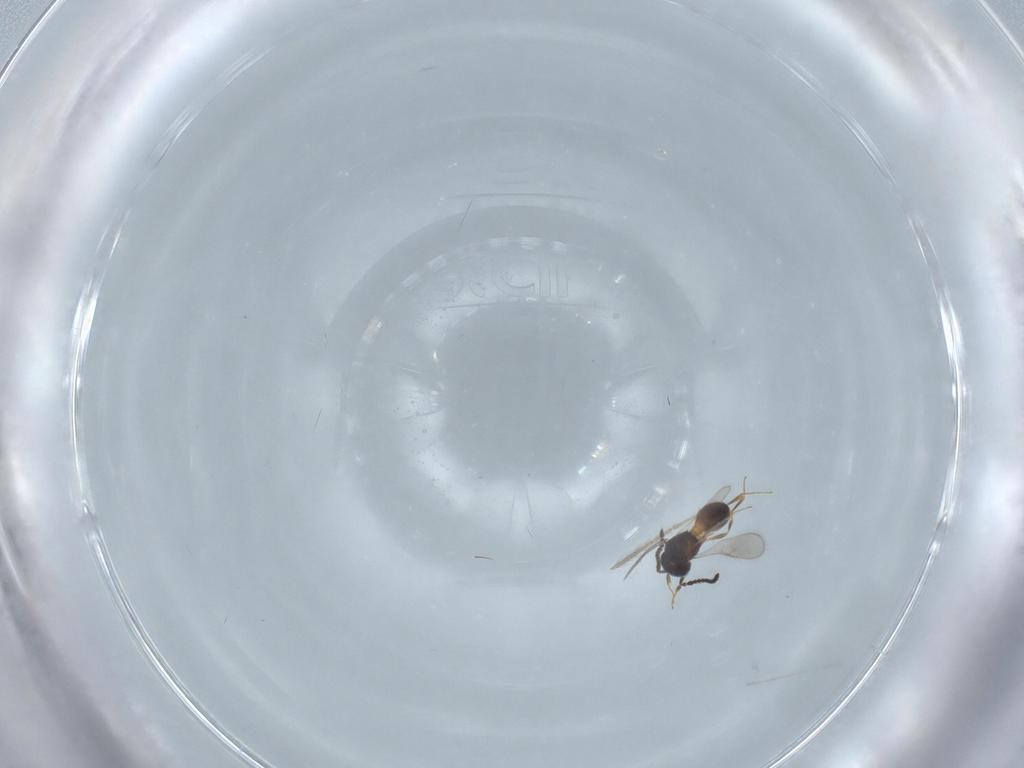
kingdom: Animalia
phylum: Arthropoda
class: Insecta
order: Hymenoptera
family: Scelionidae
